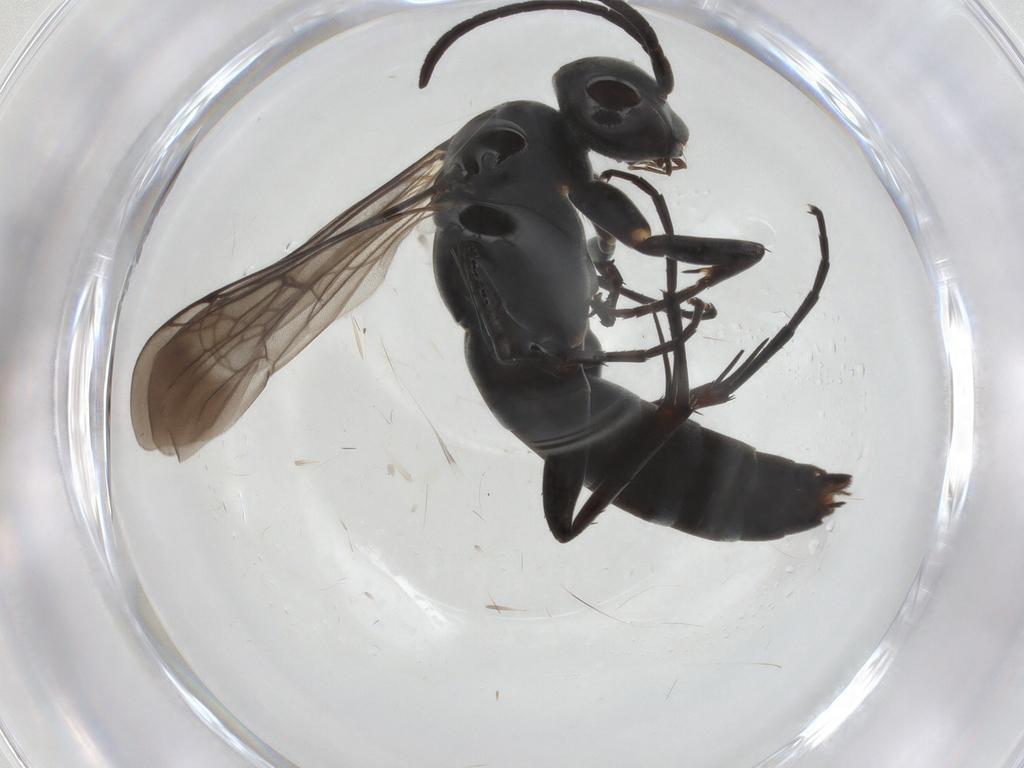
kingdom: Animalia
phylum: Arthropoda
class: Insecta
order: Hymenoptera
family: Pompilidae
